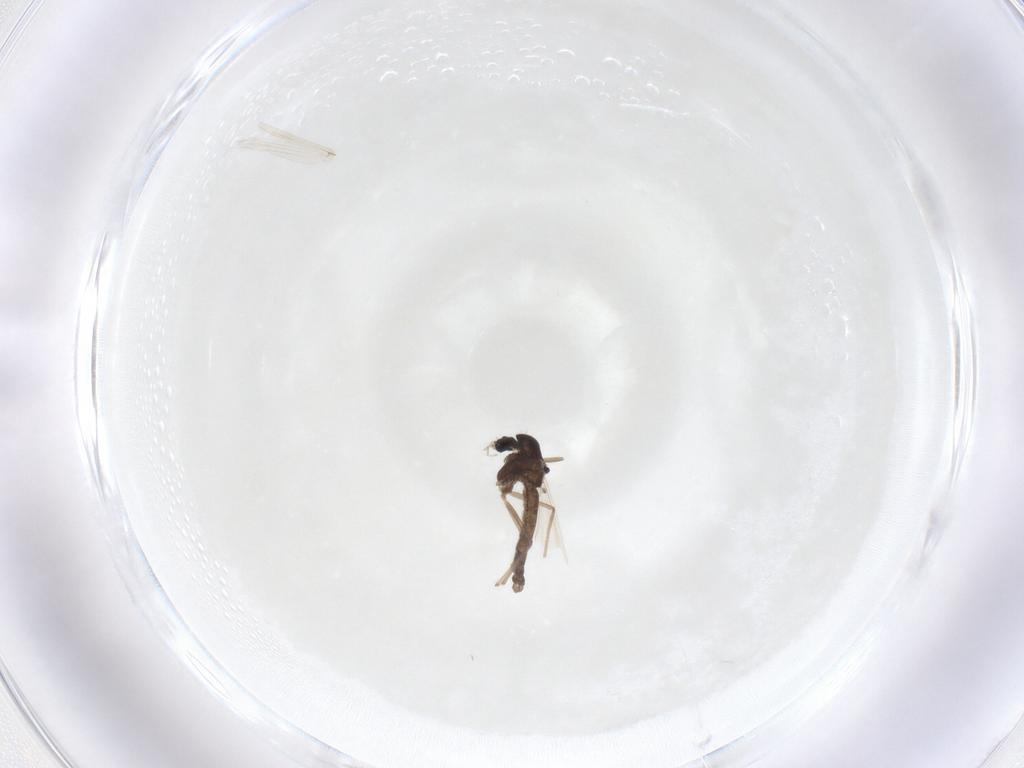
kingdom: Animalia
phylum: Arthropoda
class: Insecta
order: Diptera
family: Chironomidae
